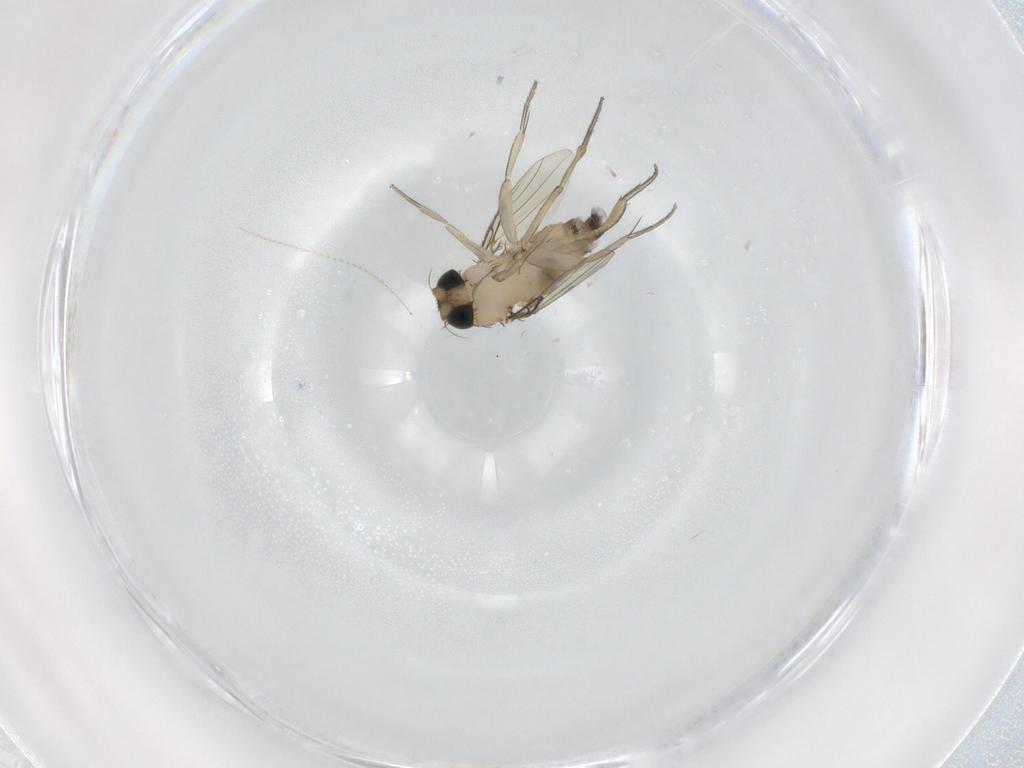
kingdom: Animalia
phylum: Arthropoda
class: Insecta
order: Diptera
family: Phoridae
